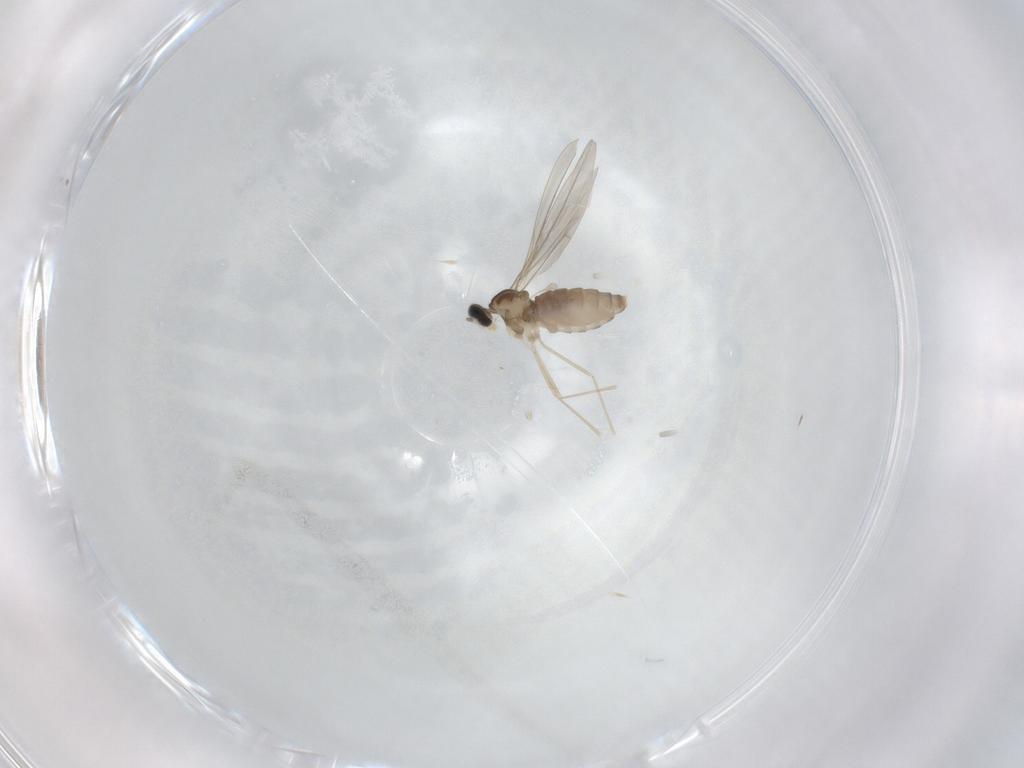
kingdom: Animalia
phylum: Arthropoda
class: Insecta
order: Diptera
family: Cecidomyiidae
